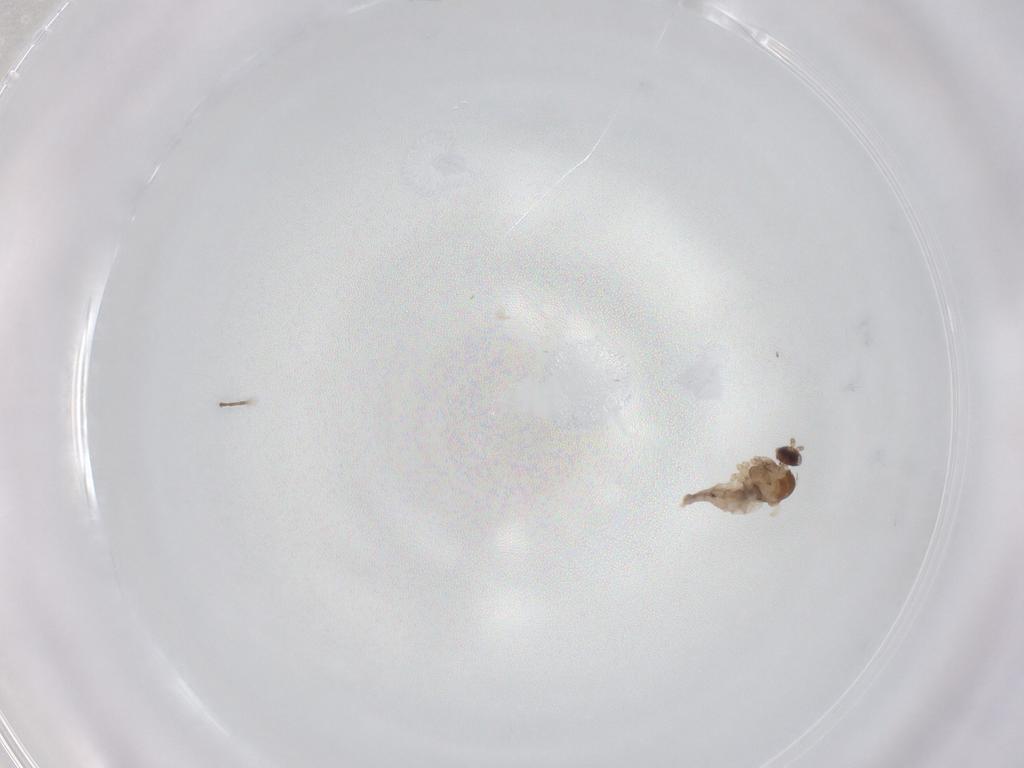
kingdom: Animalia
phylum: Arthropoda
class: Insecta
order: Diptera
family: Cecidomyiidae
